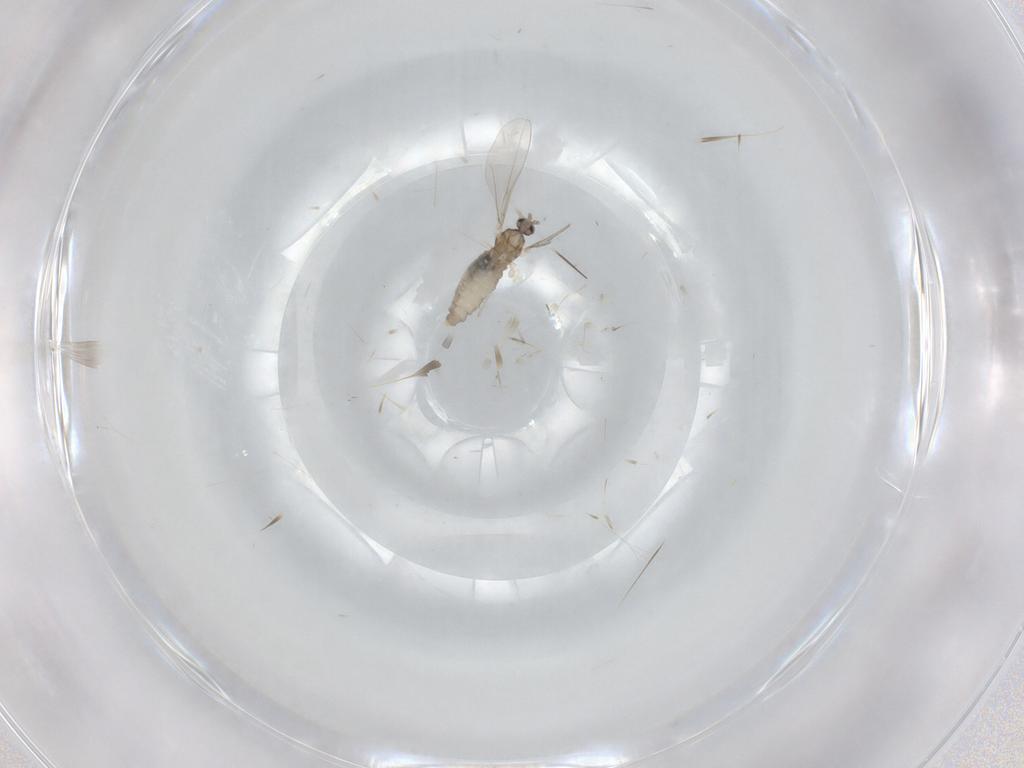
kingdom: Animalia
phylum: Arthropoda
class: Insecta
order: Diptera
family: Cecidomyiidae
